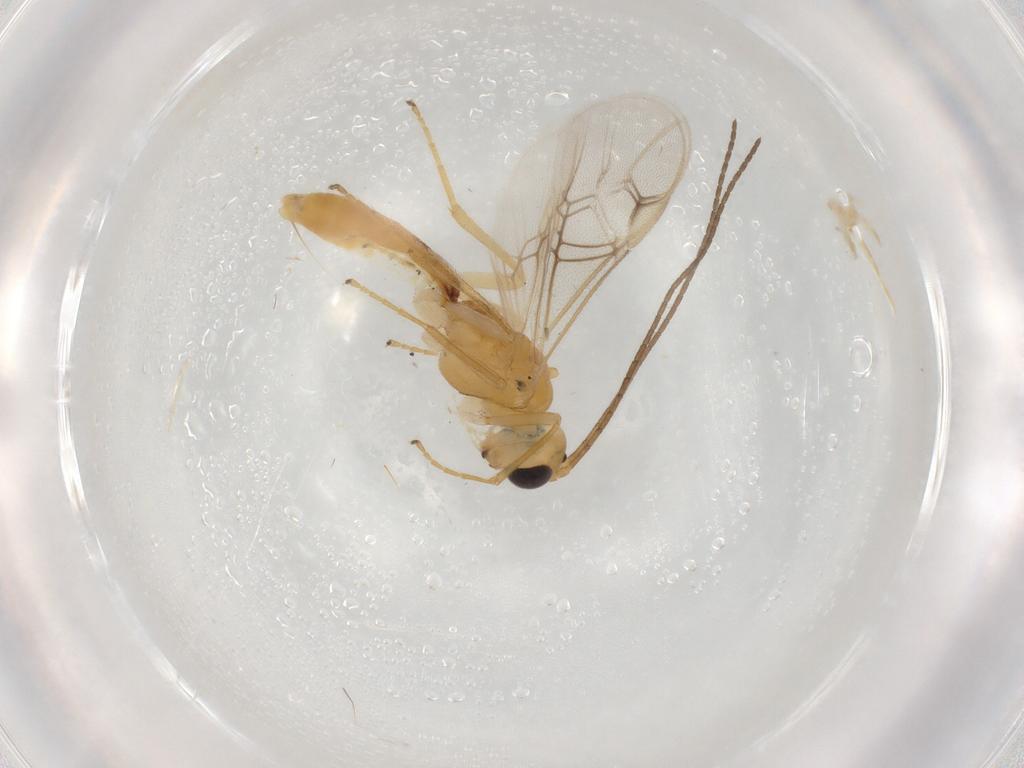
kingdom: Animalia
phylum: Arthropoda
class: Insecta
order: Hymenoptera
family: Braconidae
